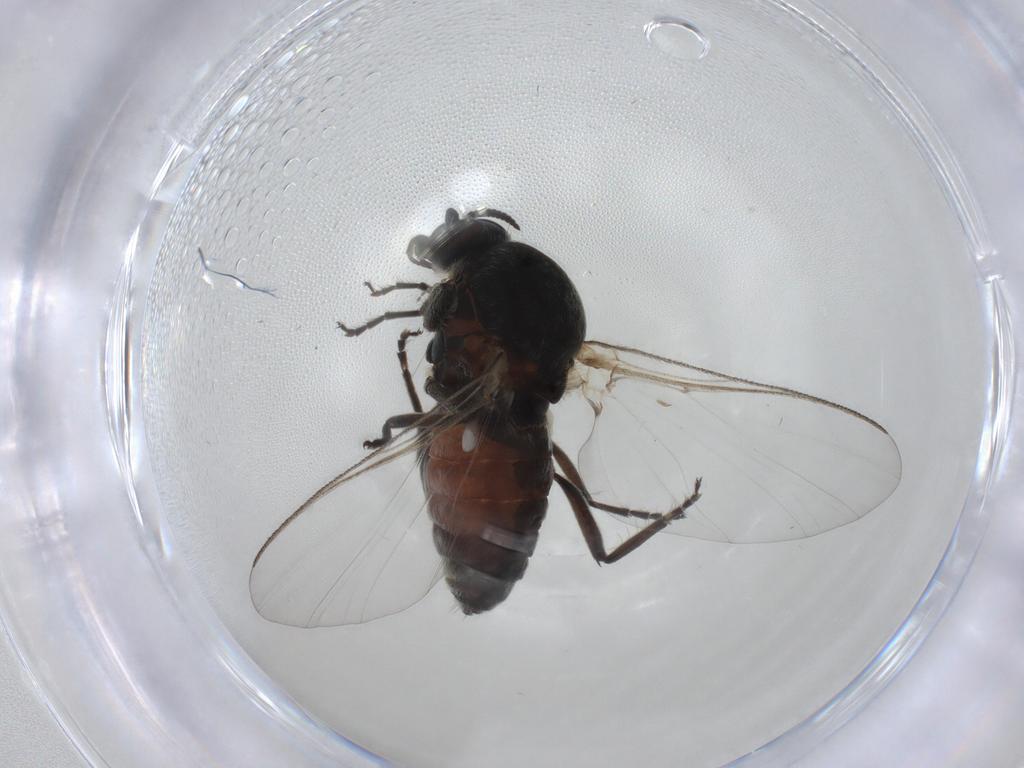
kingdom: Animalia
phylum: Arthropoda
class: Insecta
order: Diptera
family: Phoridae
